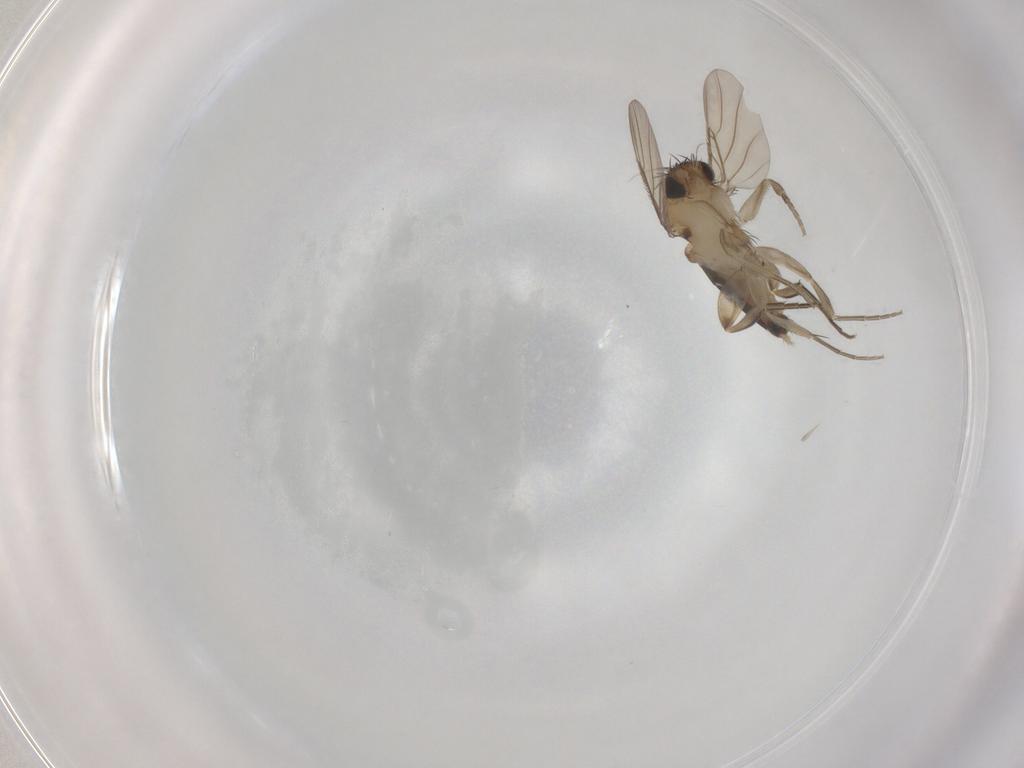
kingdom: Animalia
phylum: Arthropoda
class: Insecta
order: Diptera
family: Phoridae
